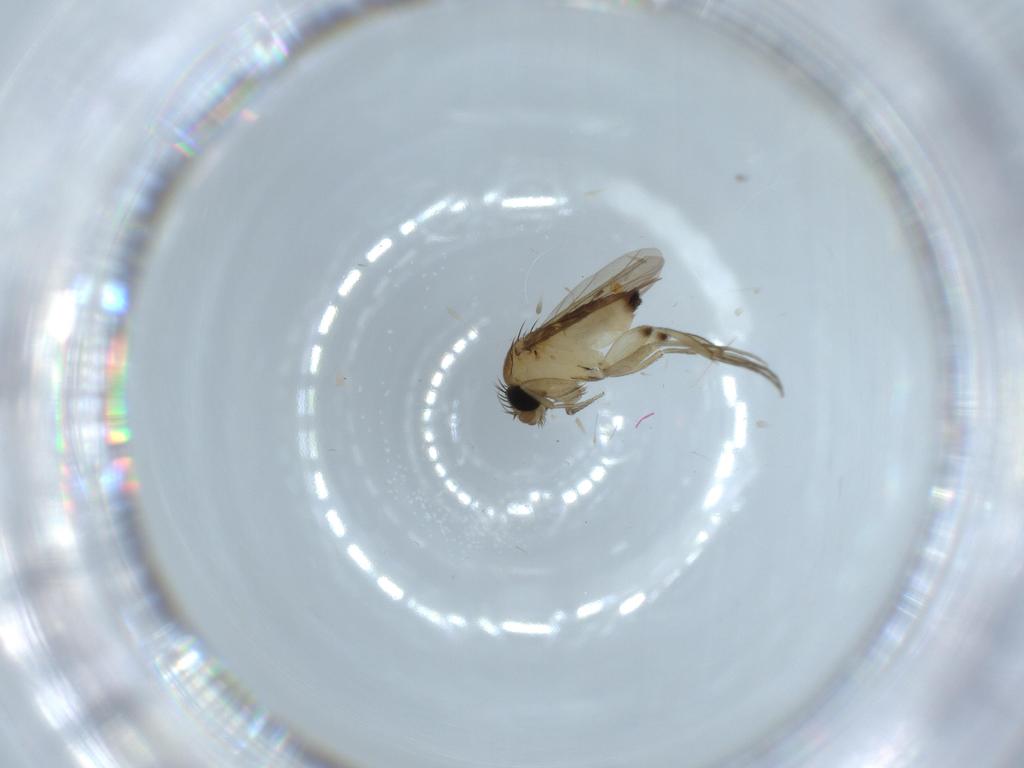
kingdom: Animalia
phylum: Arthropoda
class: Insecta
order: Diptera
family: Phoridae
